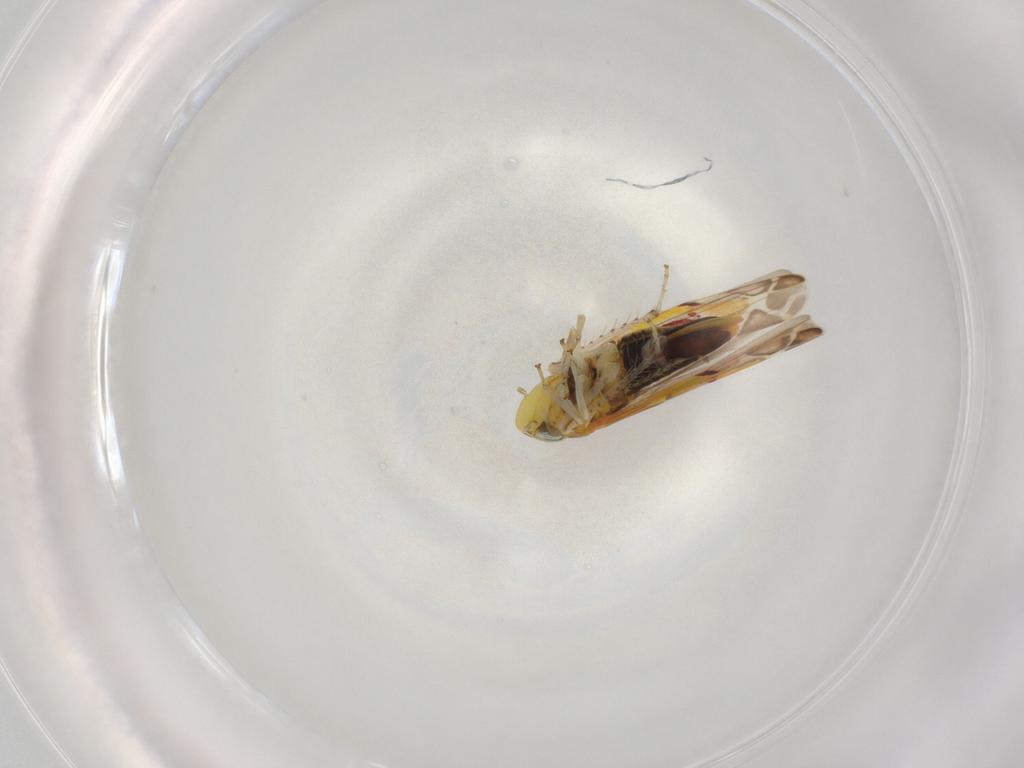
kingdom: Animalia
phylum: Arthropoda
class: Insecta
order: Hemiptera
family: Cicadellidae
